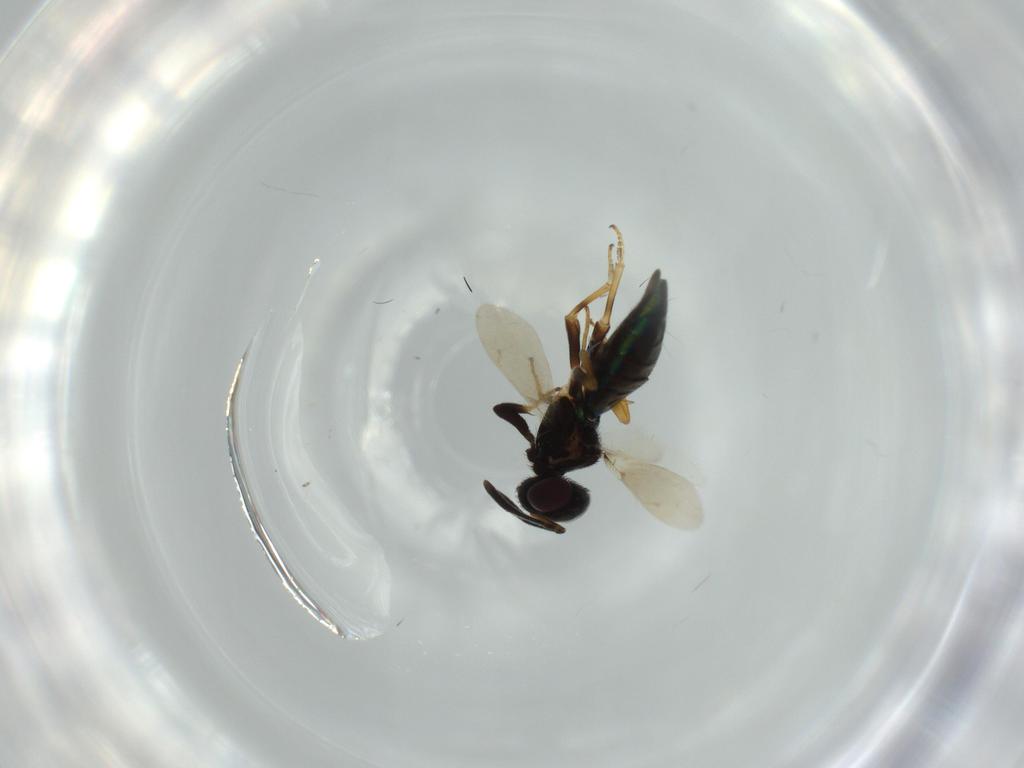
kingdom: Animalia
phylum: Arthropoda
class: Insecta
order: Hymenoptera
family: Eupelmidae
